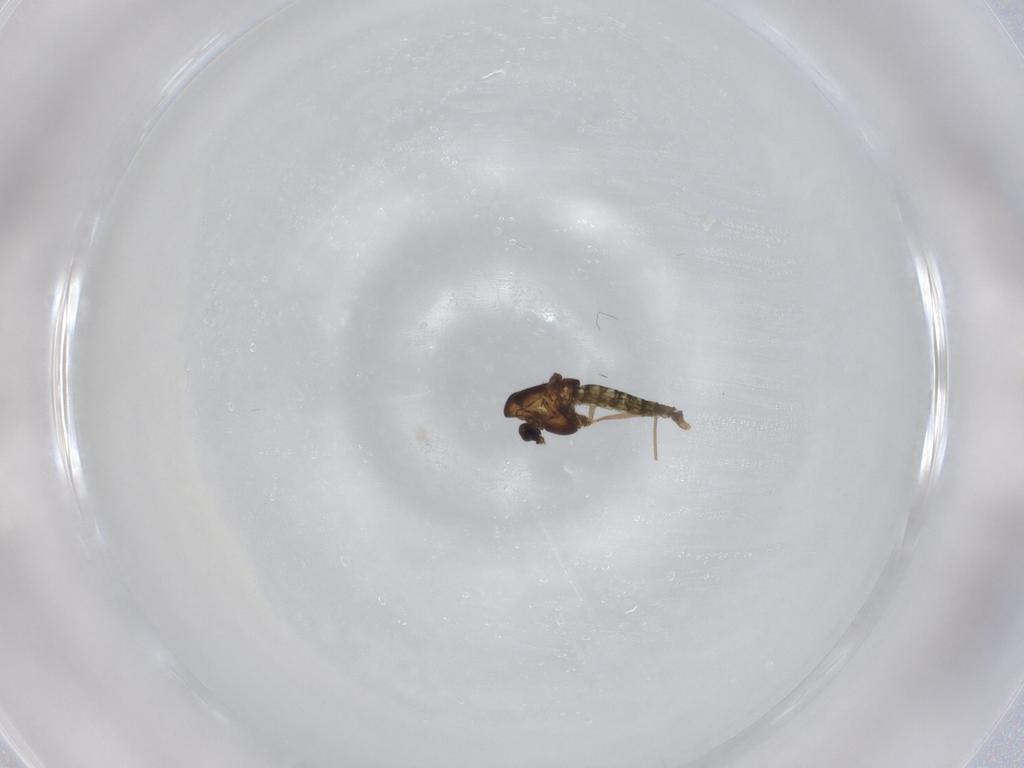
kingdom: Animalia
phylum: Arthropoda
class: Insecta
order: Diptera
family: Chironomidae
